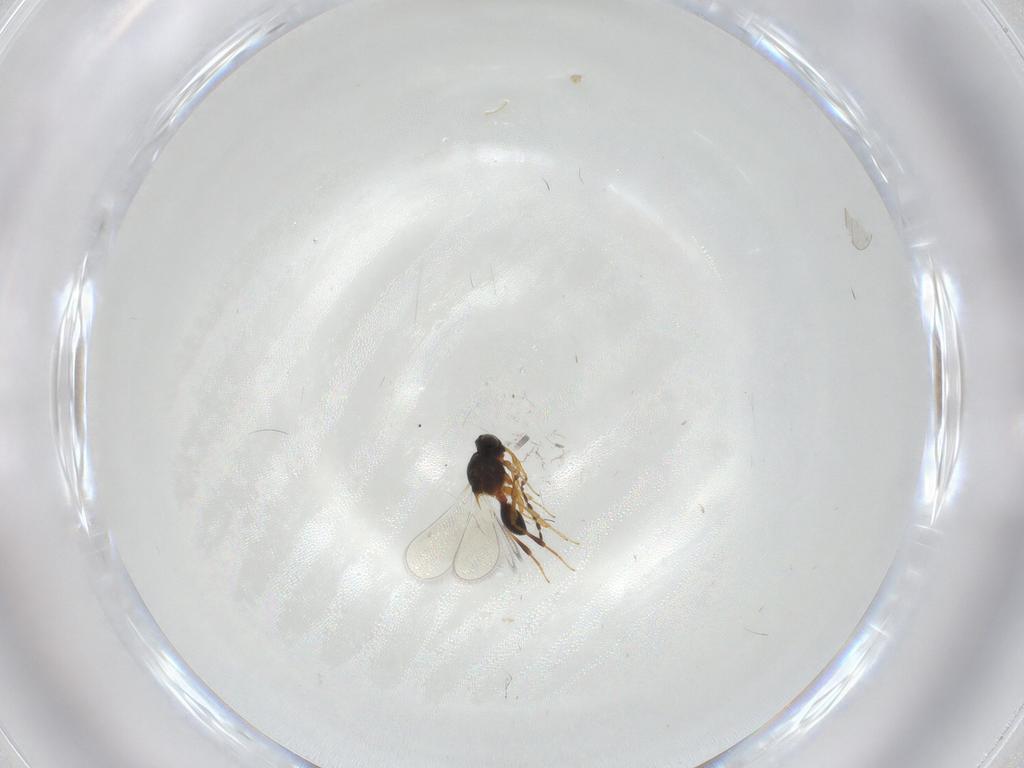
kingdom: Animalia
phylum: Arthropoda
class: Insecta
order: Hymenoptera
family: Platygastridae
